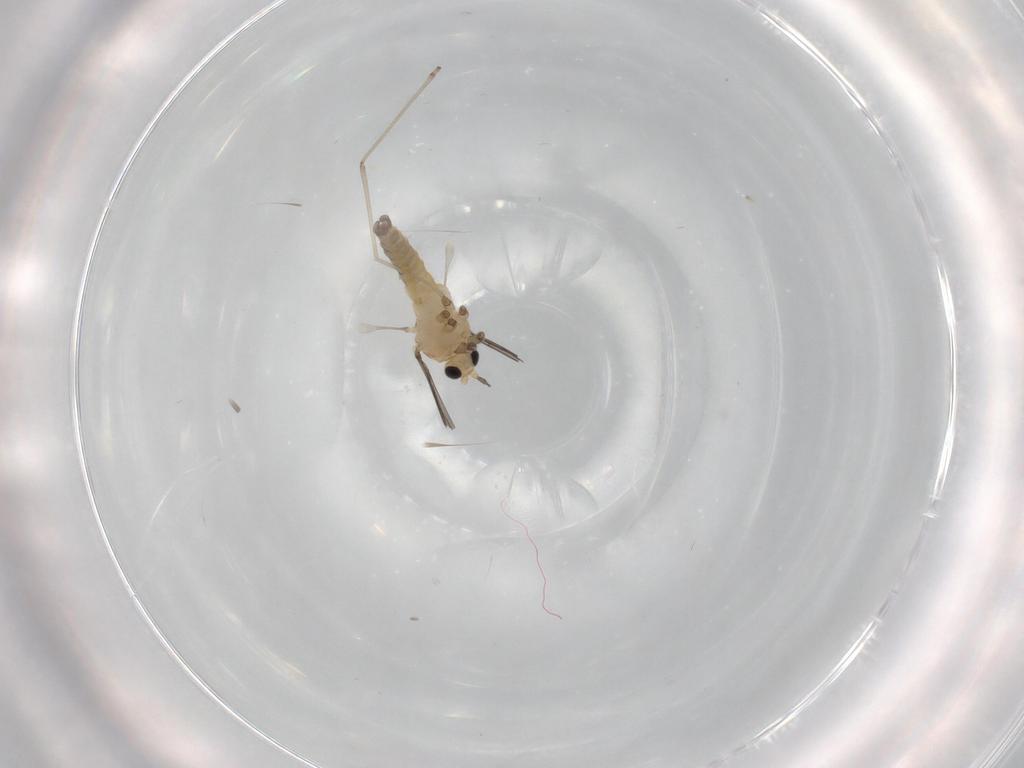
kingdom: Animalia
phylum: Arthropoda
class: Insecta
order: Diptera
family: Cecidomyiidae
